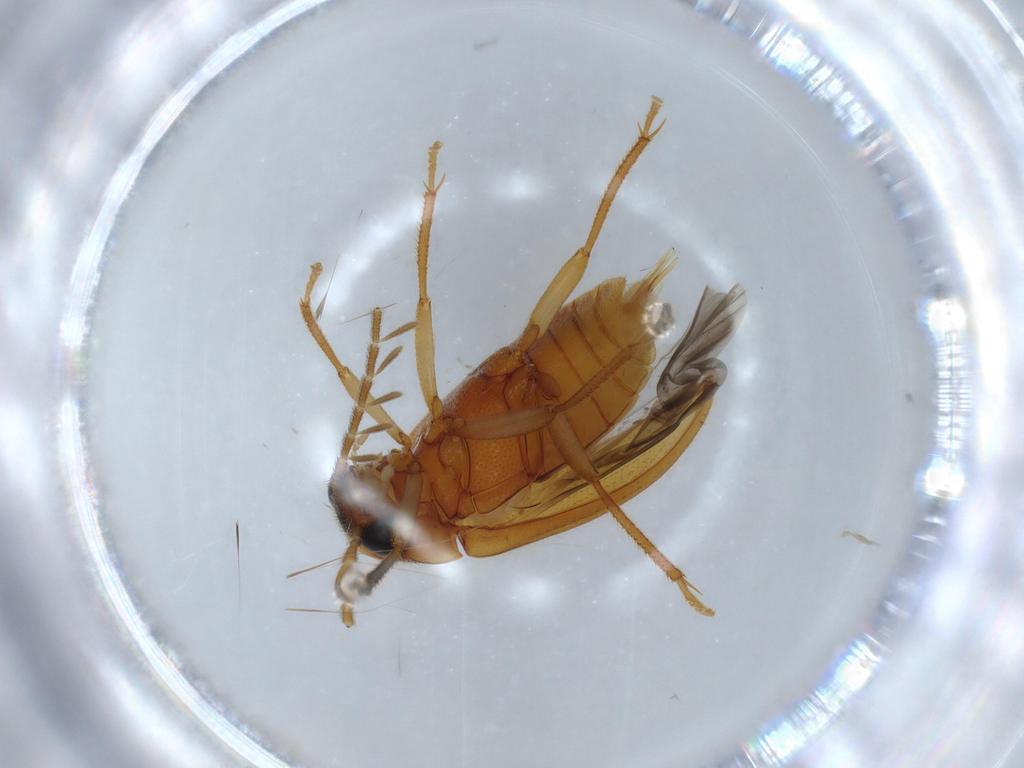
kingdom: Animalia
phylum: Arthropoda
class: Insecta
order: Coleoptera
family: Ptilodactylidae
